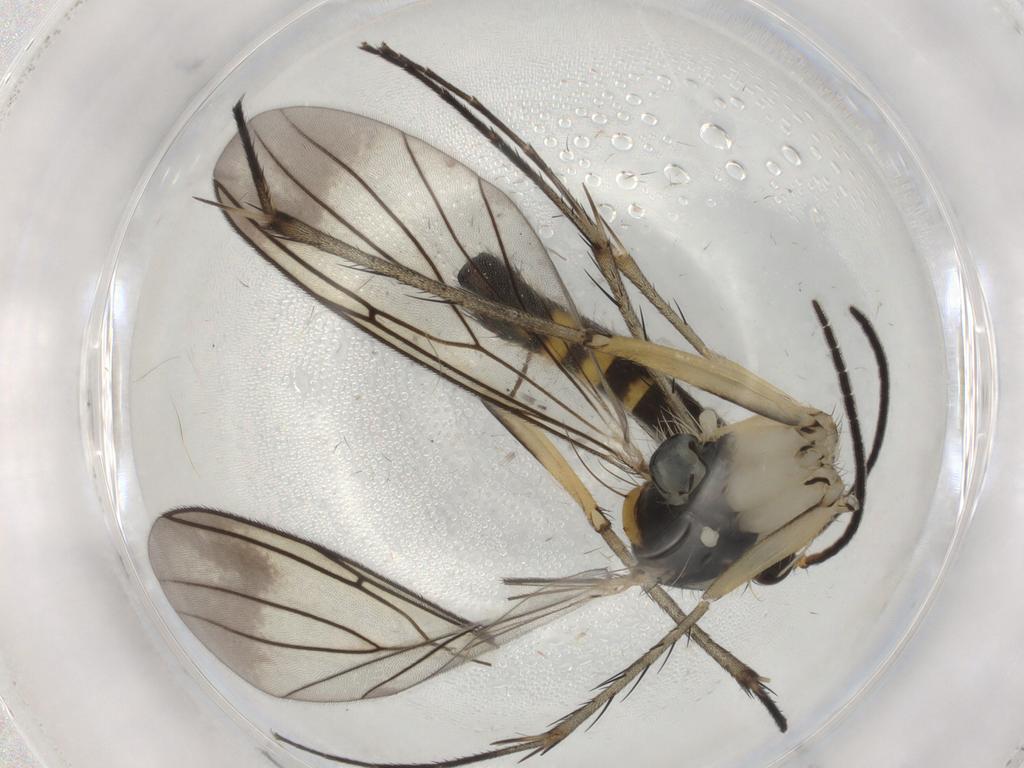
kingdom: Animalia
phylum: Arthropoda
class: Insecta
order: Diptera
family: Mycetophilidae
